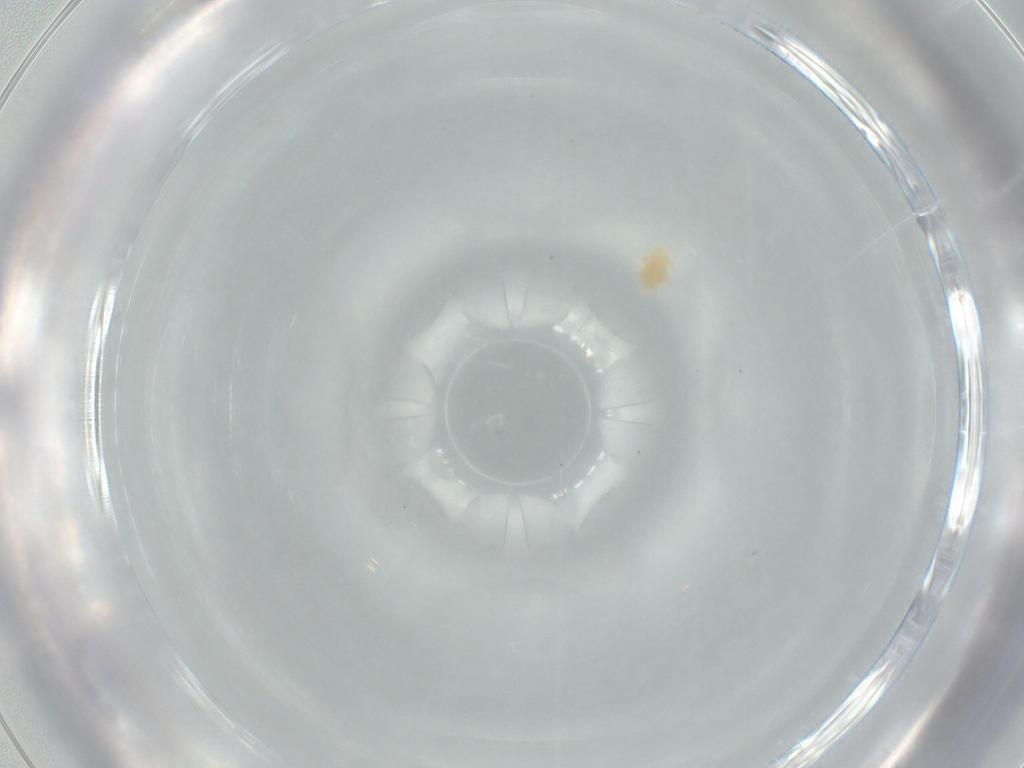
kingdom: Animalia
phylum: Arthropoda
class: Arachnida
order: Trombidiformes
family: Eupodidae
